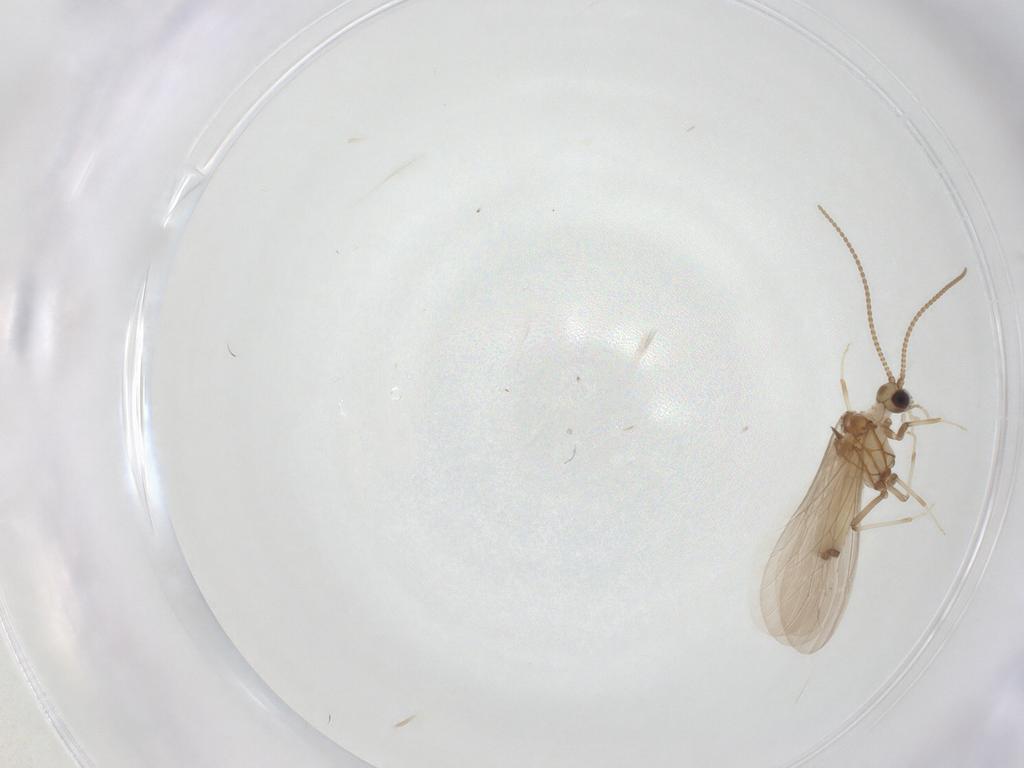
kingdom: Animalia
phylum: Arthropoda
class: Insecta
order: Neuroptera
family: Coniopterygidae
